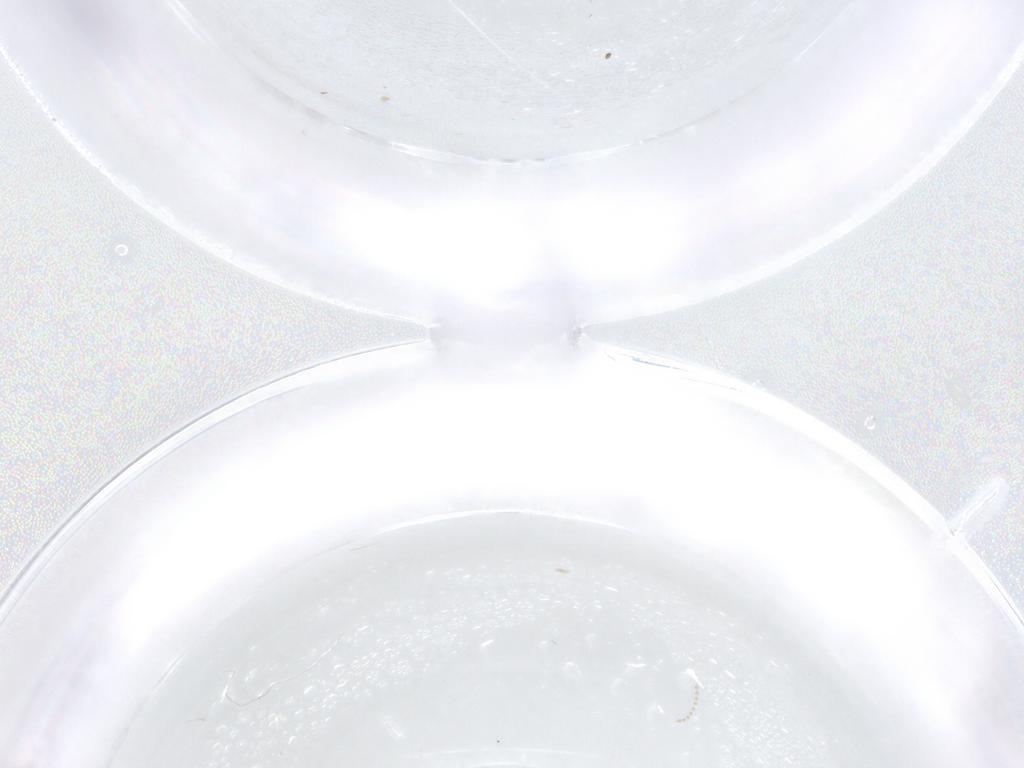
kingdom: Animalia
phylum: Arthropoda
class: Insecta
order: Diptera
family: Psychodidae
